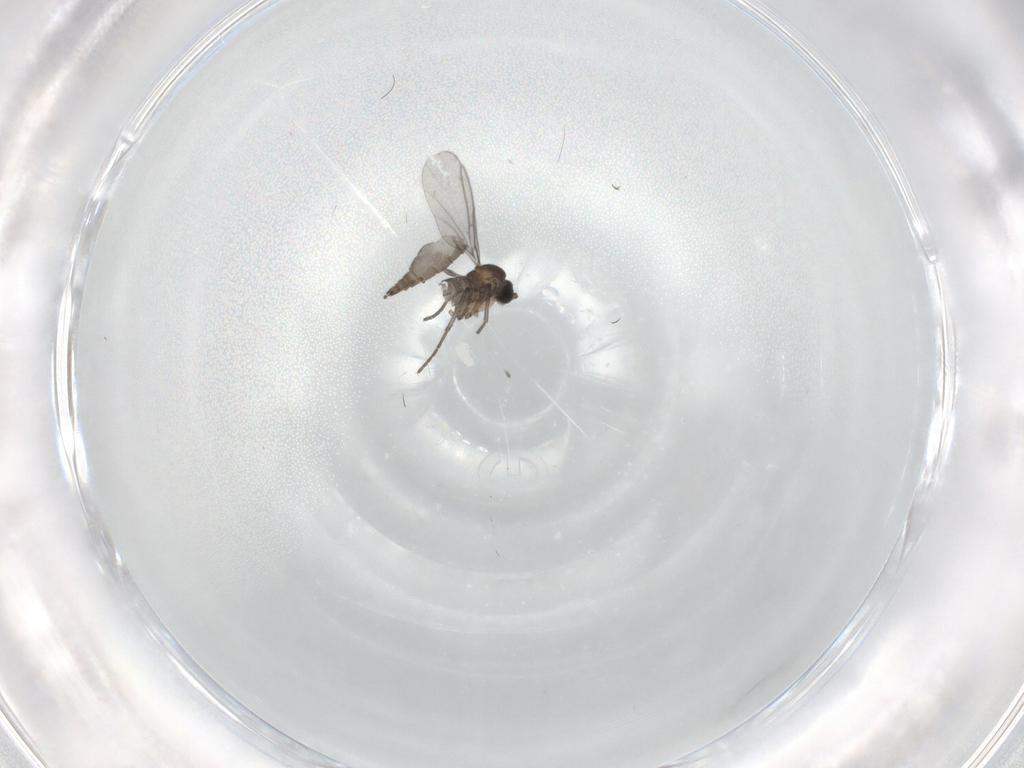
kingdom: Animalia
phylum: Arthropoda
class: Insecta
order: Diptera
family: Sciaridae
